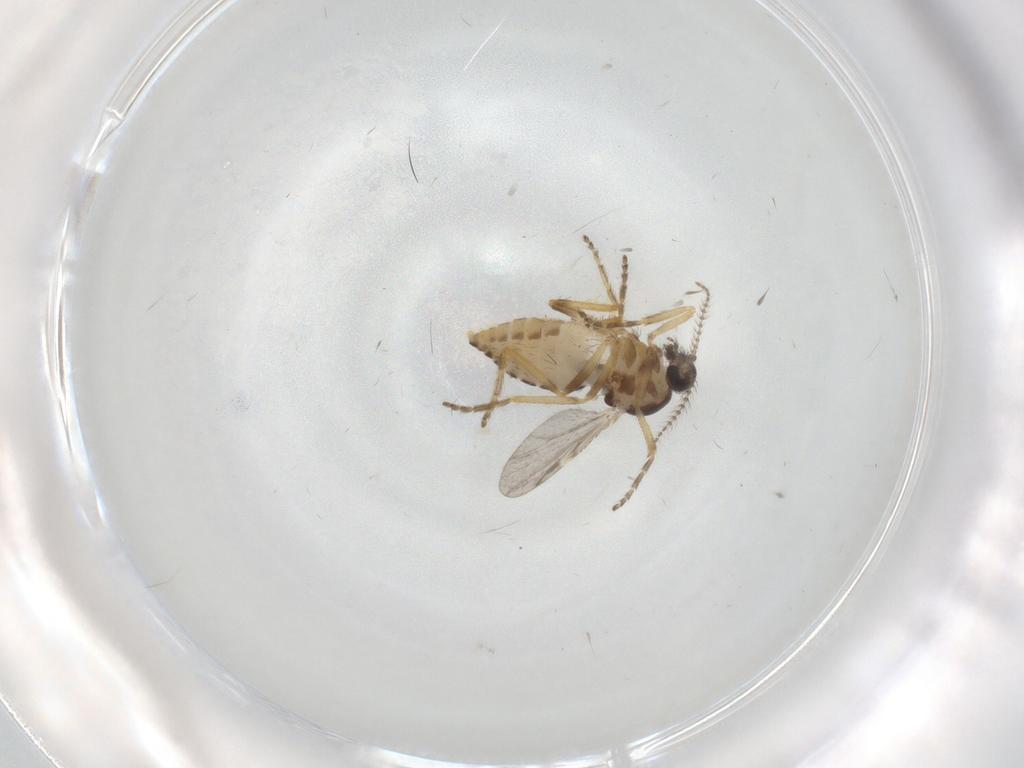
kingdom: Animalia
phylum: Arthropoda
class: Insecta
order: Diptera
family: Ceratopogonidae
